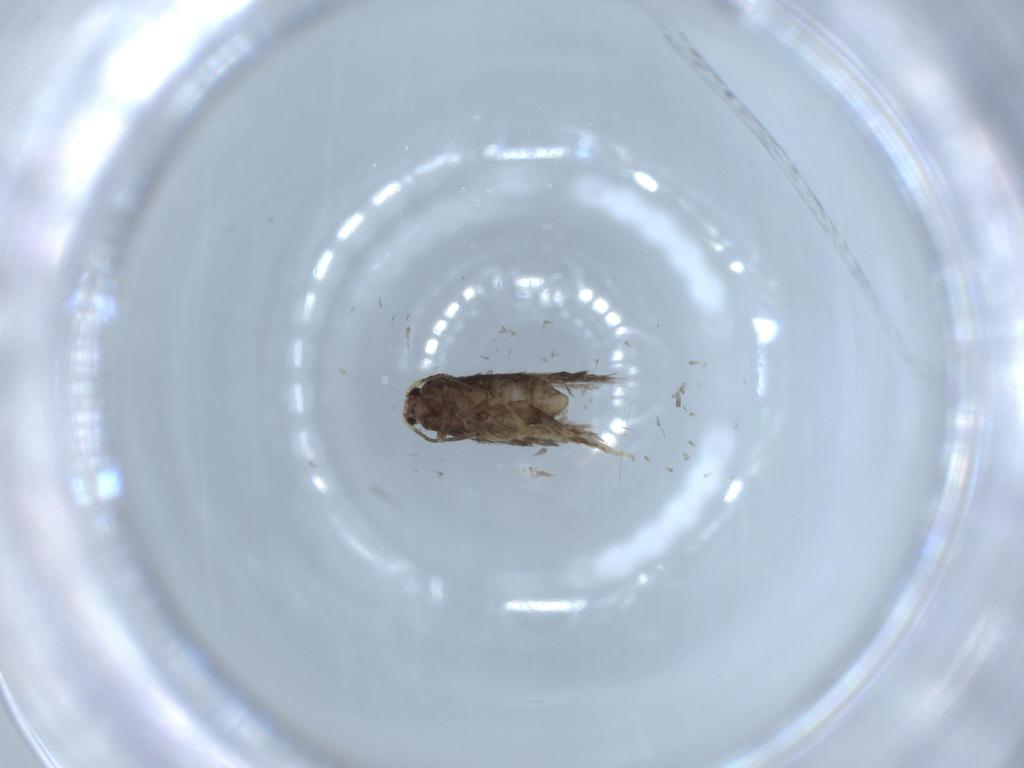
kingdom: Animalia
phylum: Arthropoda
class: Insecta
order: Lepidoptera
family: Nepticulidae
